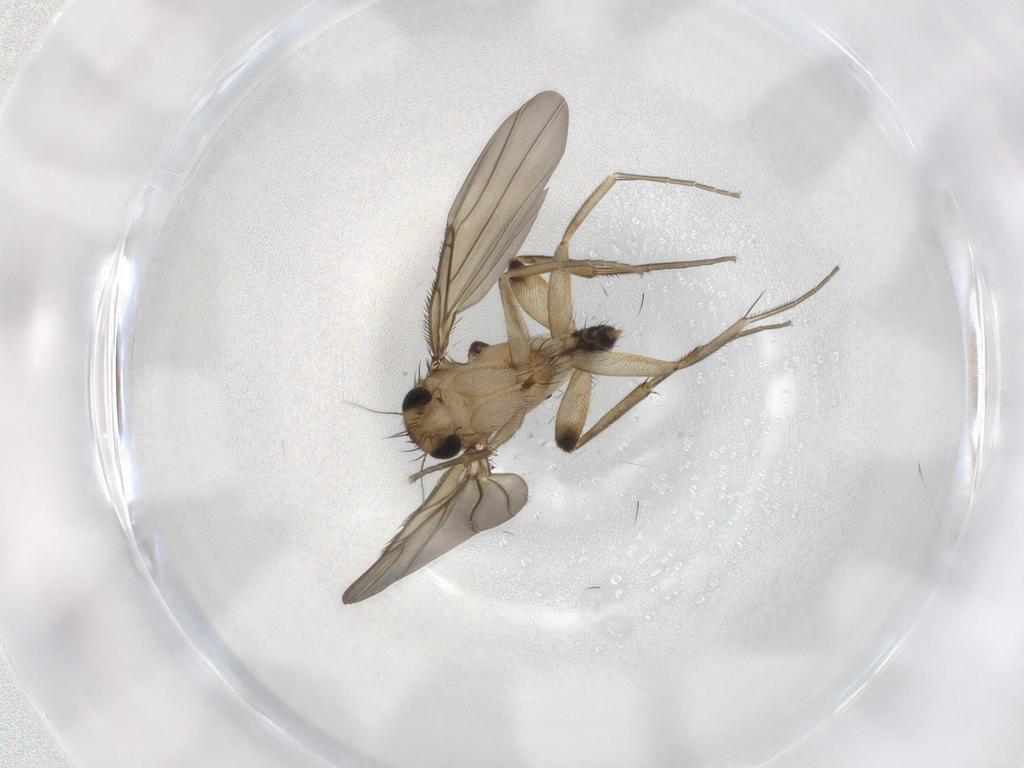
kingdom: Animalia
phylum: Arthropoda
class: Insecta
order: Diptera
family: Phoridae
